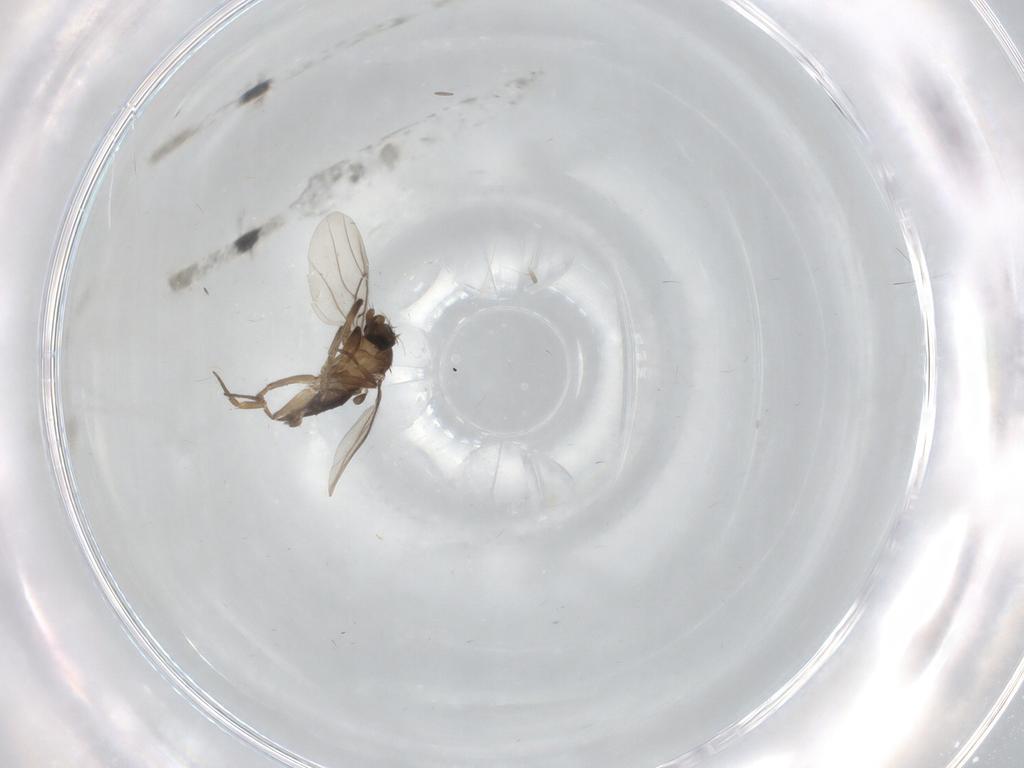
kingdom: Animalia
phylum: Arthropoda
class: Insecta
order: Diptera
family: Phoridae
